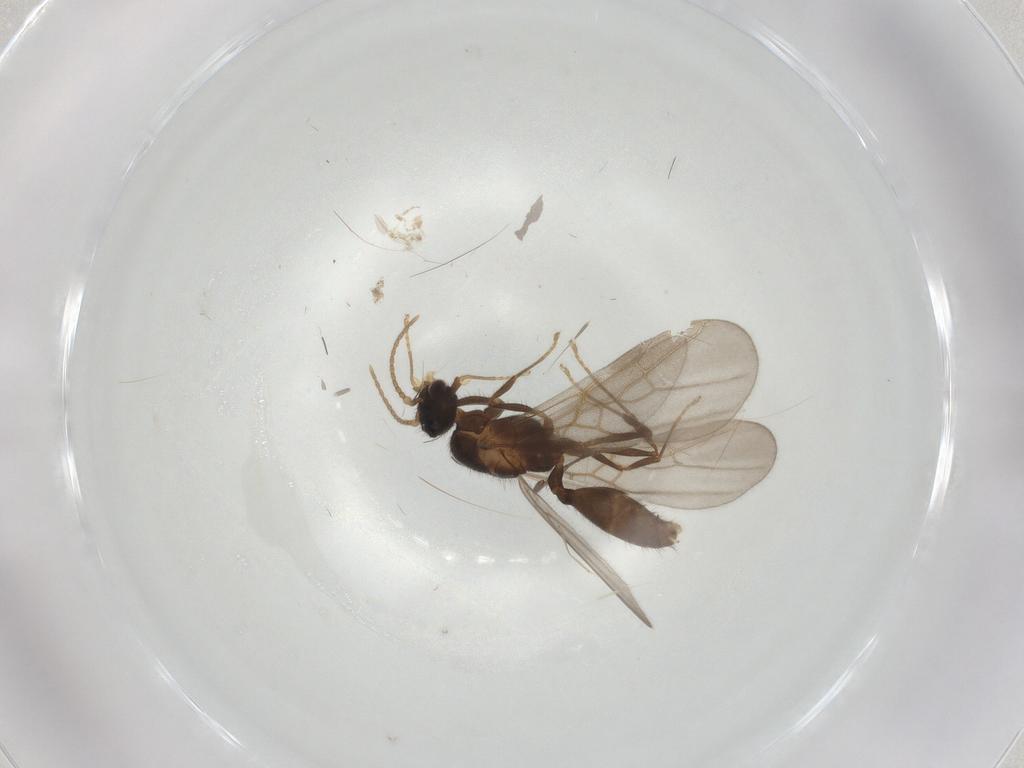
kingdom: Animalia
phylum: Arthropoda
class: Insecta
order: Hymenoptera
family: Formicidae
